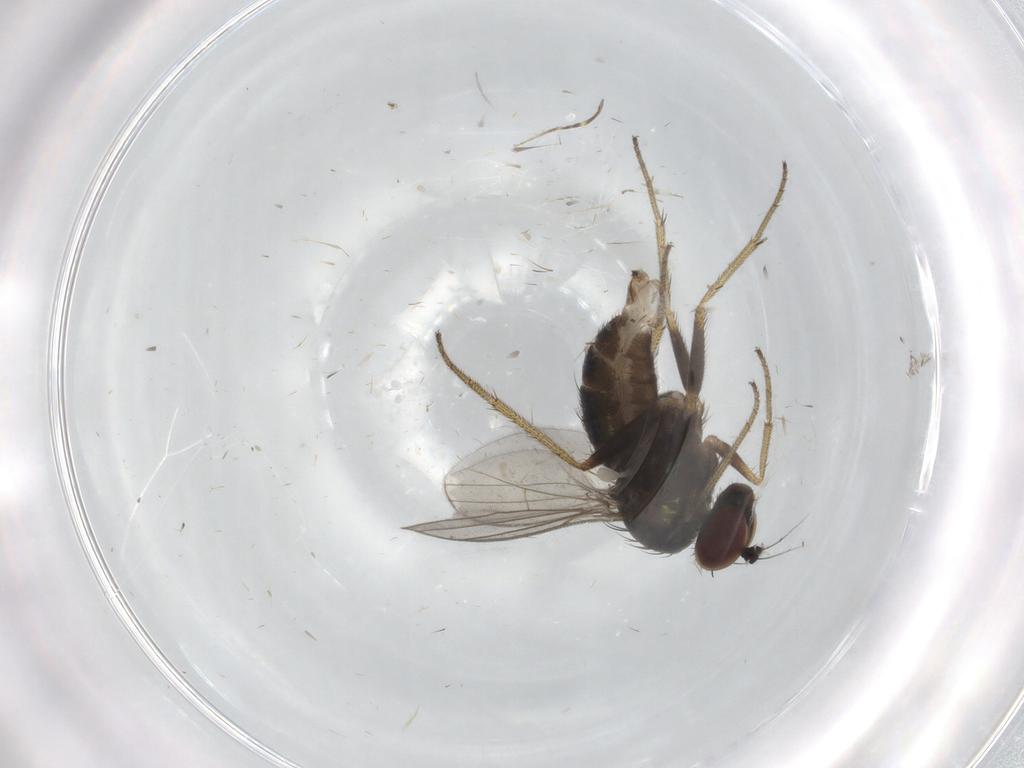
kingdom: Animalia
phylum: Arthropoda
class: Insecta
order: Diptera
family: Dolichopodidae
